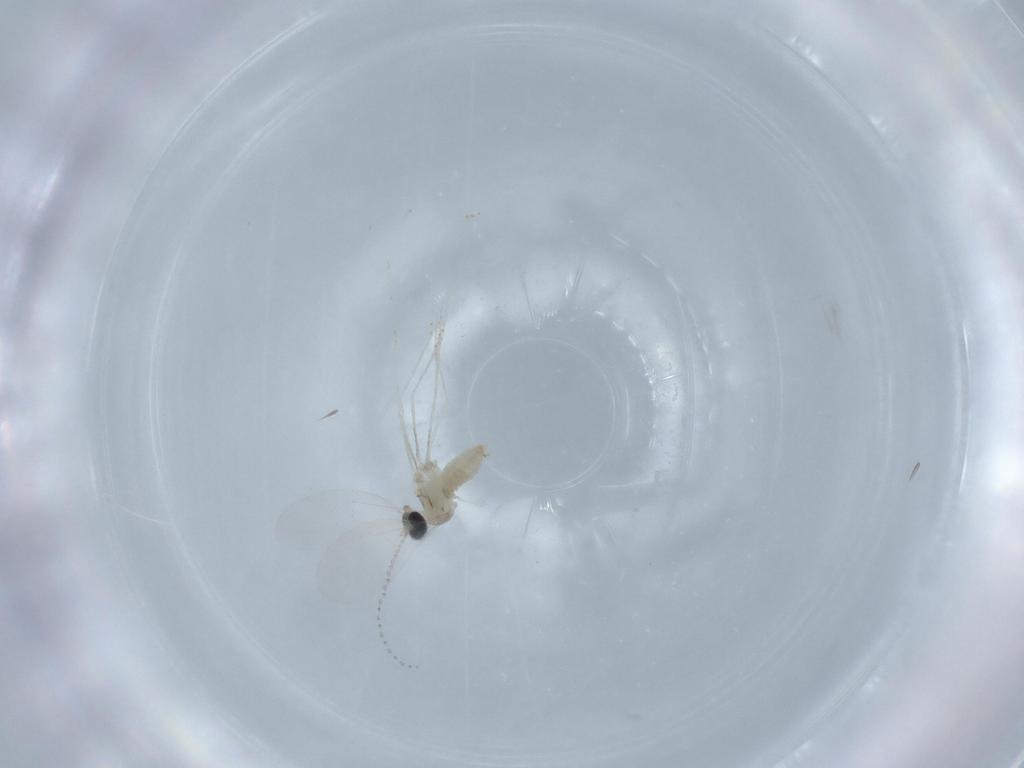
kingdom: Animalia
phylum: Arthropoda
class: Insecta
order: Diptera
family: Cecidomyiidae
